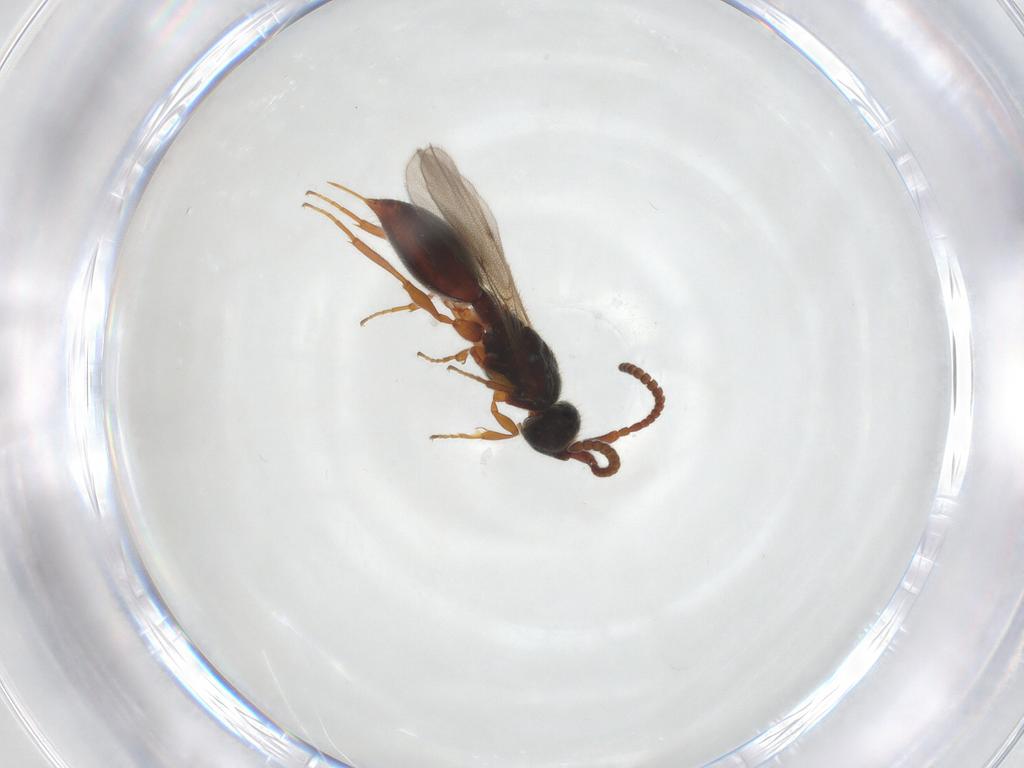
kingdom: Animalia
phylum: Arthropoda
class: Insecta
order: Hymenoptera
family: Diapriidae
